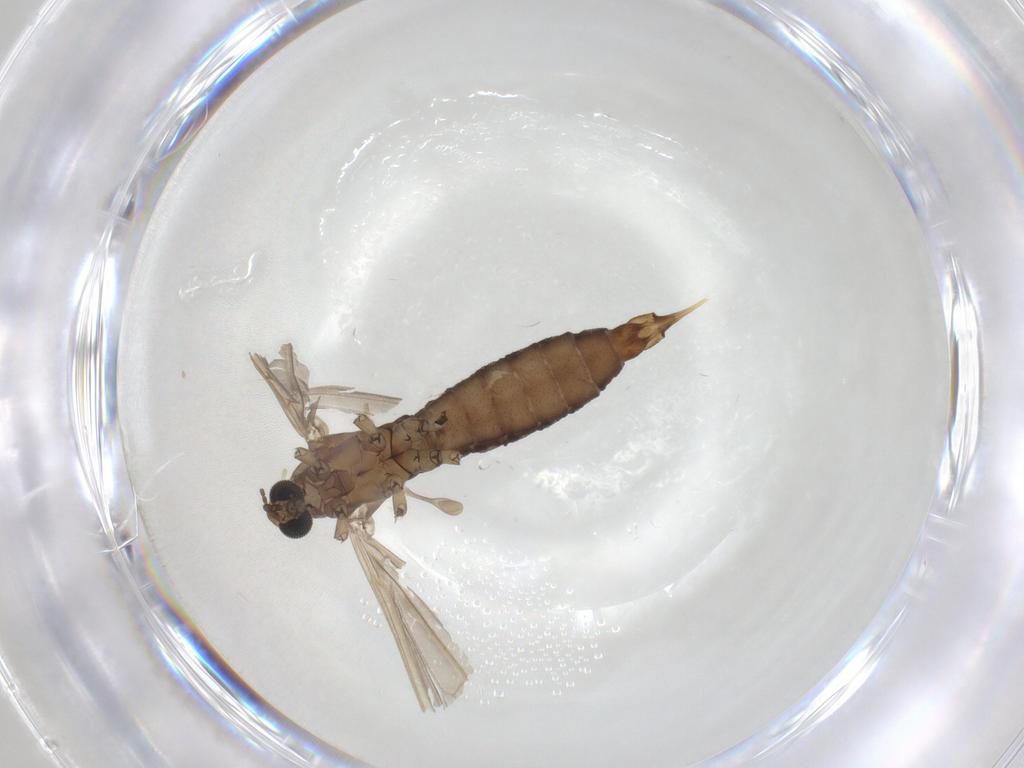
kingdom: Animalia
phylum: Arthropoda
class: Insecta
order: Diptera
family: Limoniidae
